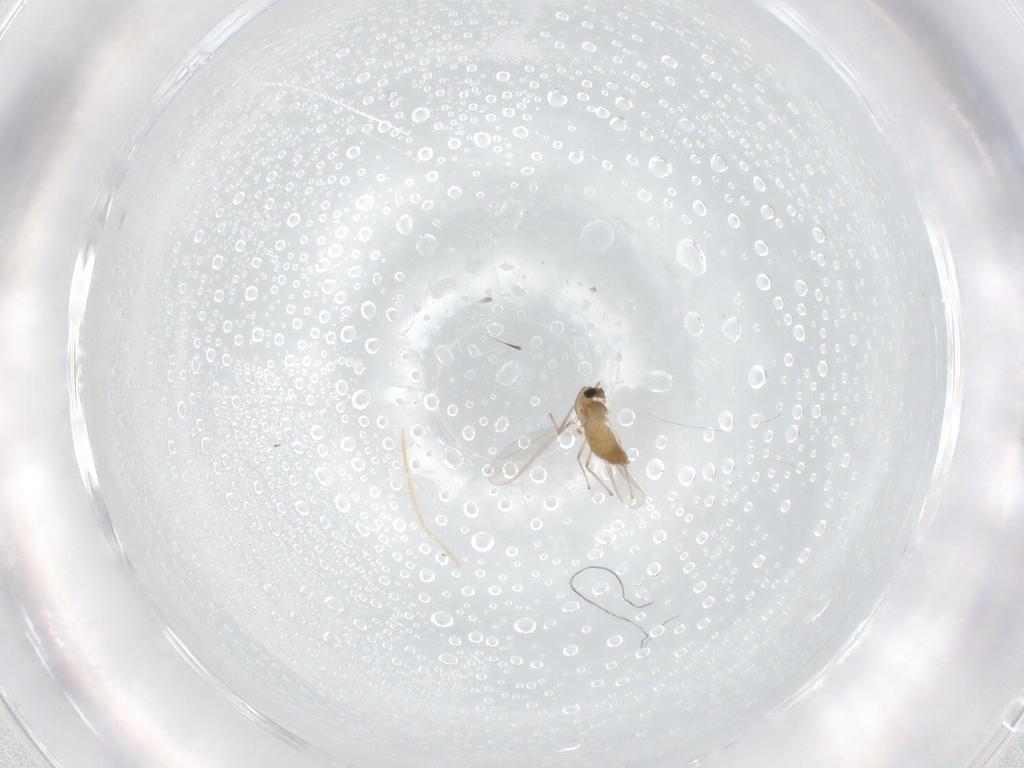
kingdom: Animalia
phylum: Arthropoda
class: Insecta
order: Diptera
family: Chironomidae
